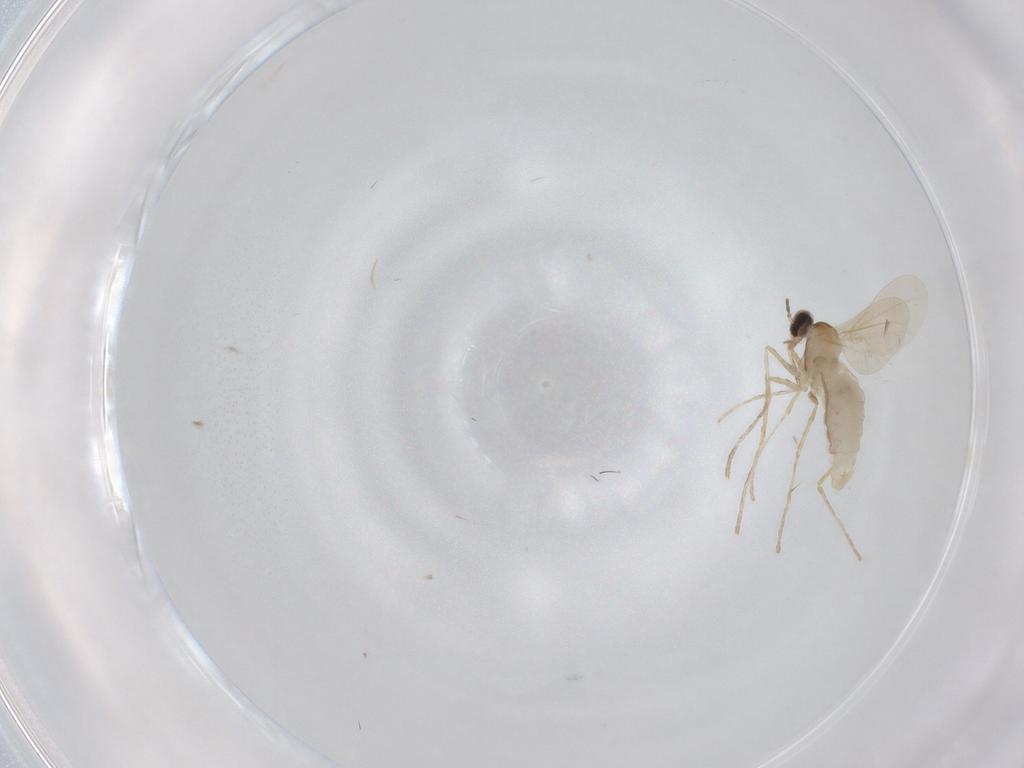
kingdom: Animalia
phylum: Arthropoda
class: Insecta
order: Diptera
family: Cecidomyiidae
